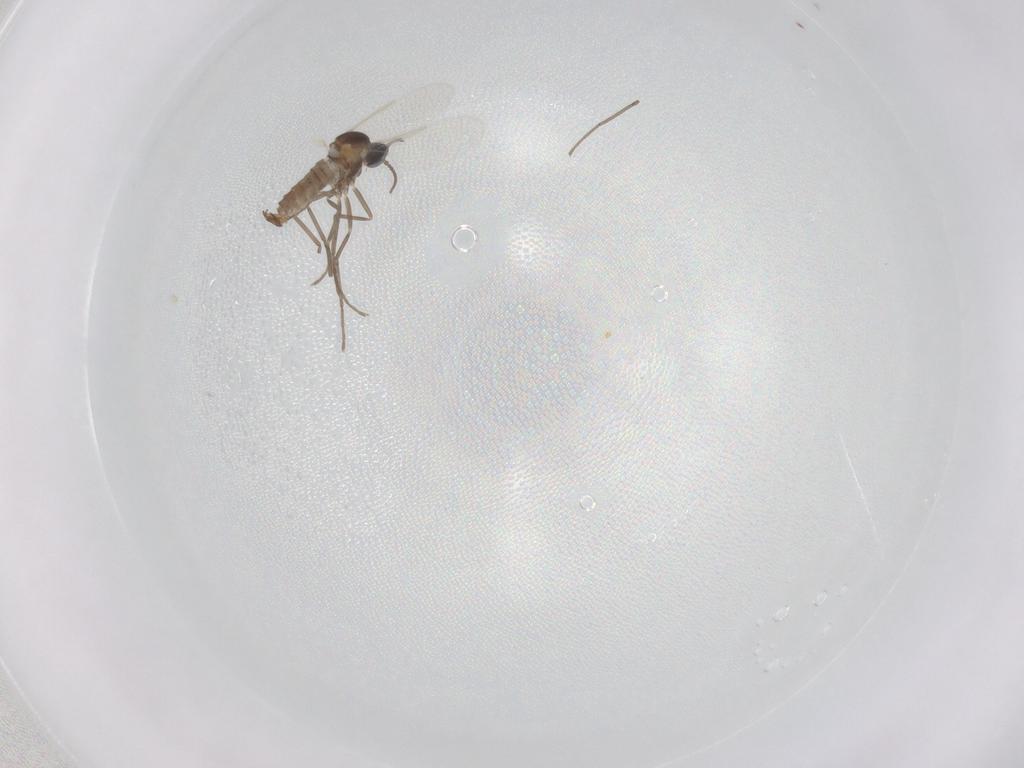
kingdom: Animalia
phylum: Arthropoda
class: Insecta
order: Diptera
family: Cecidomyiidae
